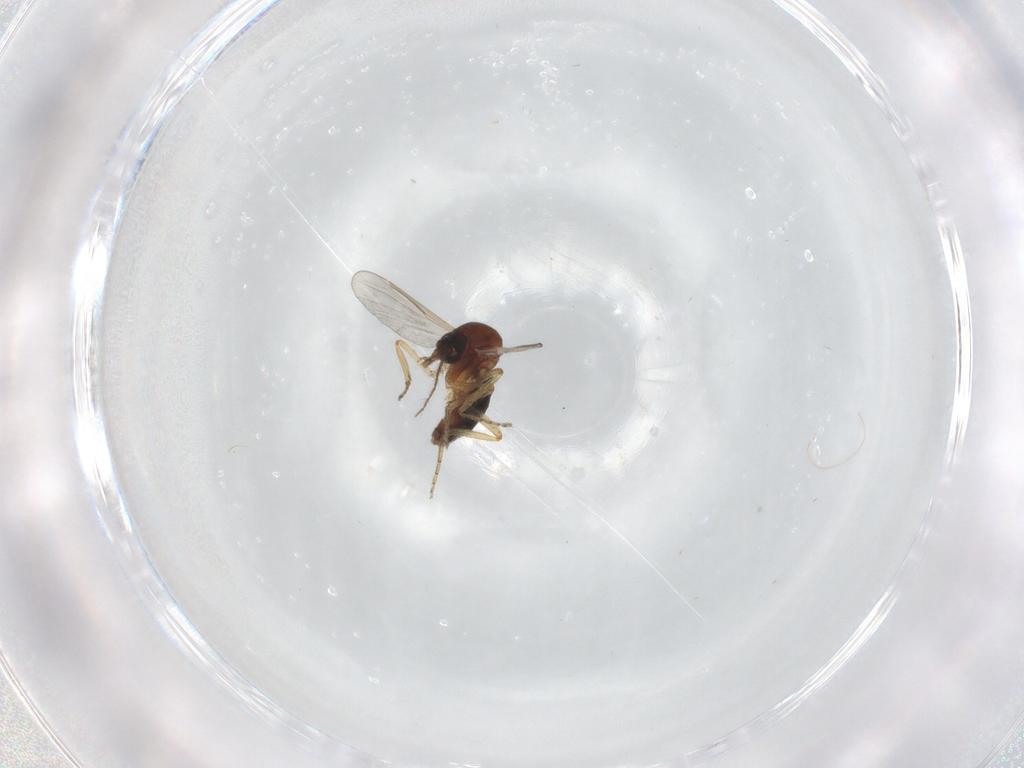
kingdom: Animalia
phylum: Arthropoda
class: Insecta
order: Diptera
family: Ceratopogonidae
